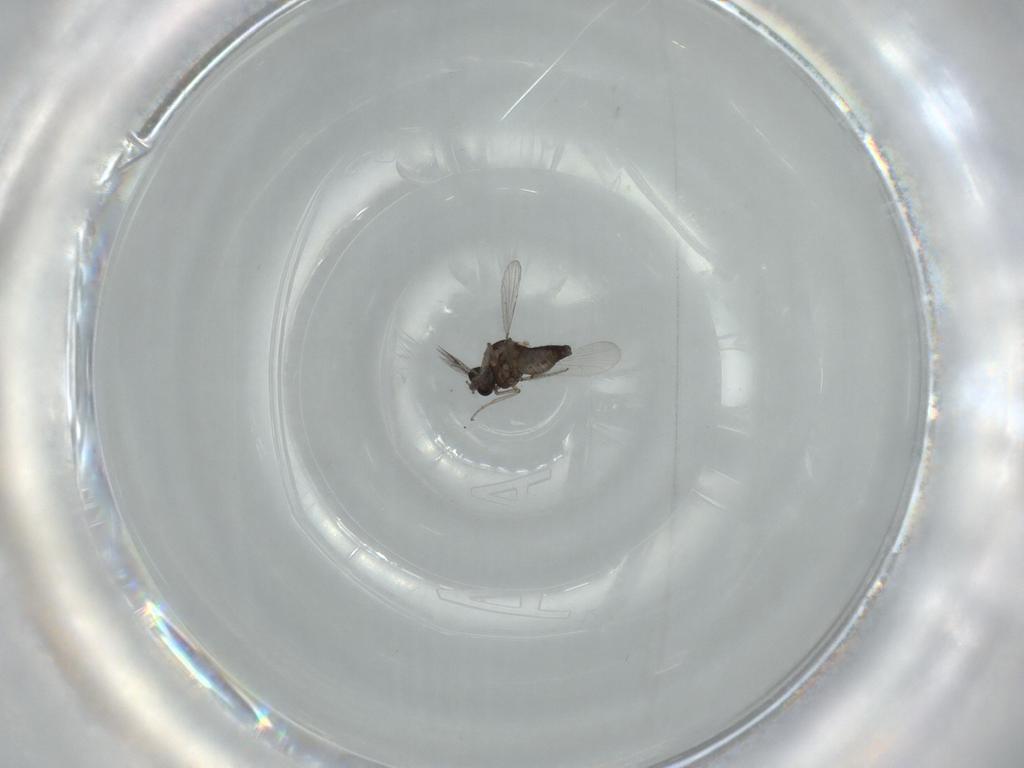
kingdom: Animalia
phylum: Arthropoda
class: Insecta
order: Diptera
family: Ceratopogonidae
